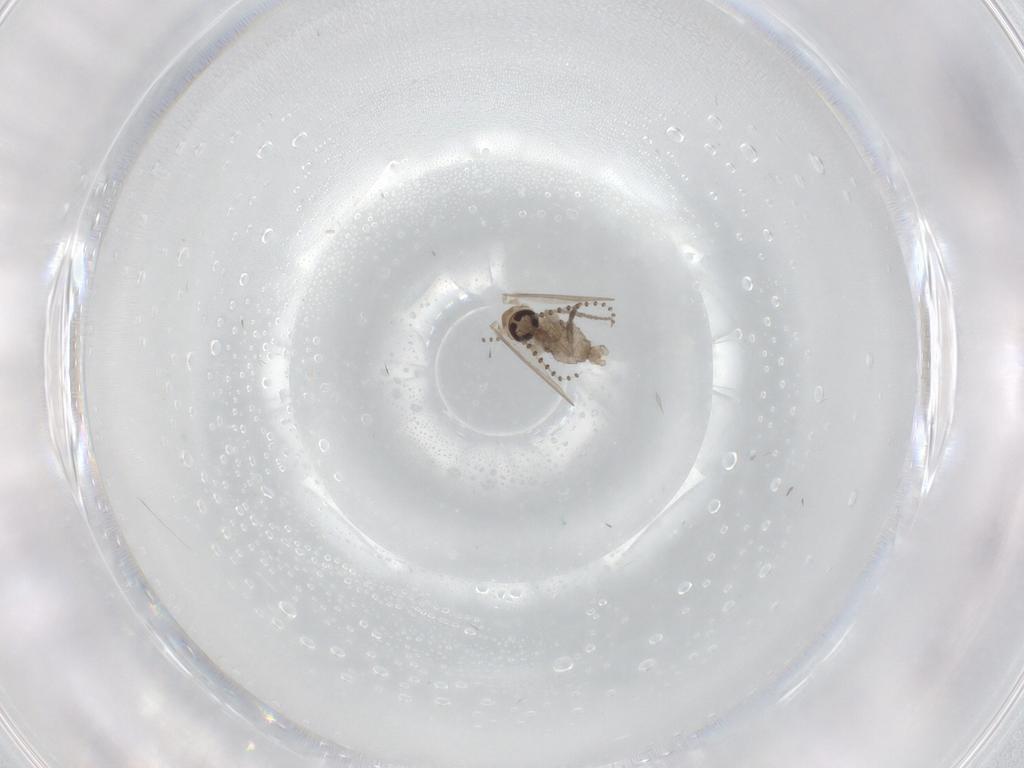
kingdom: Animalia
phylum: Arthropoda
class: Insecta
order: Diptera
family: Psychodidae
